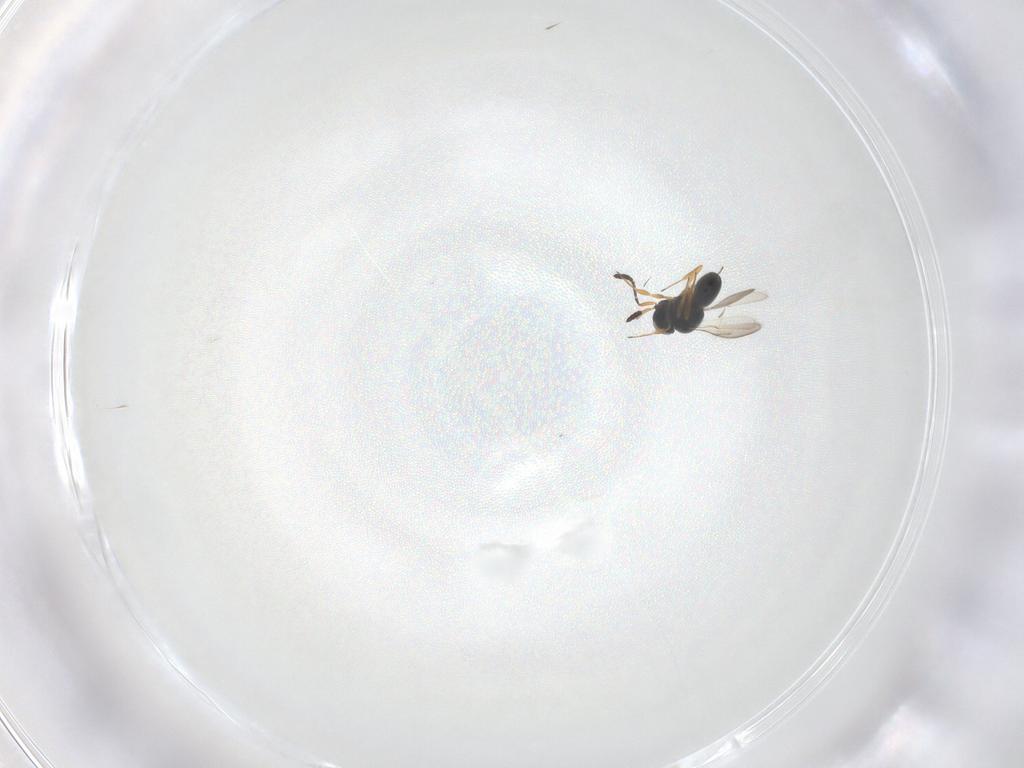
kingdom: Animalia
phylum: Arthropoda
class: Insecta
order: Hymenoptera
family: Scelionidae
